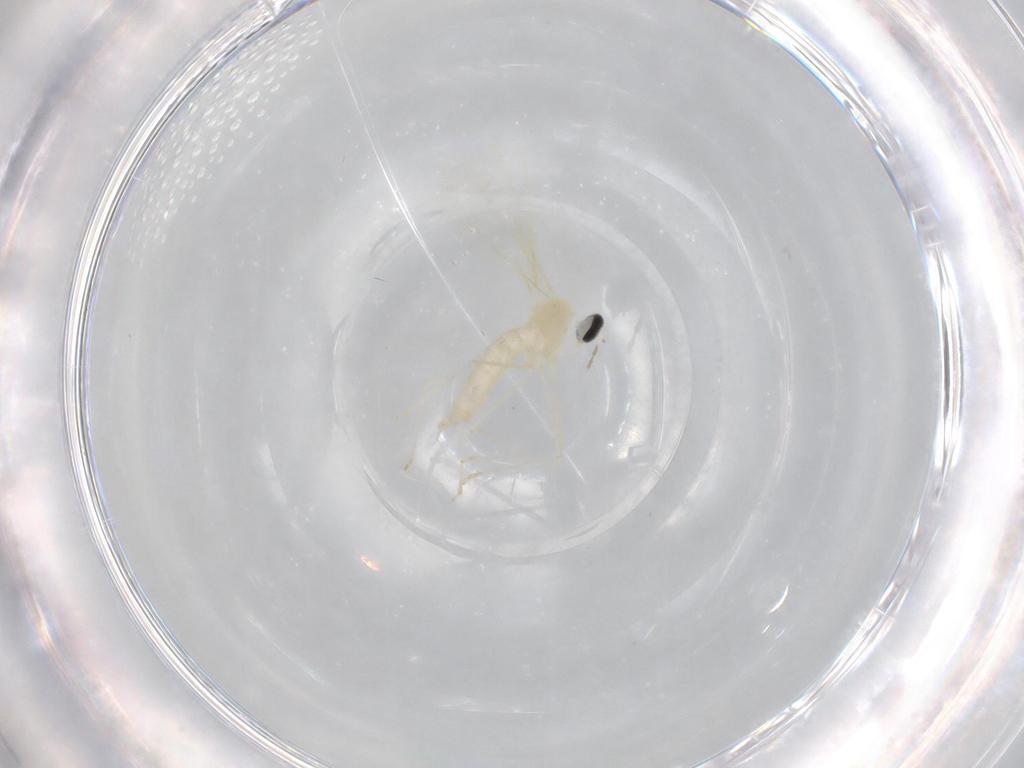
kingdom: Animalia
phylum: Arthropoda
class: Insecta
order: Diptera
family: Cecidomyiidae
